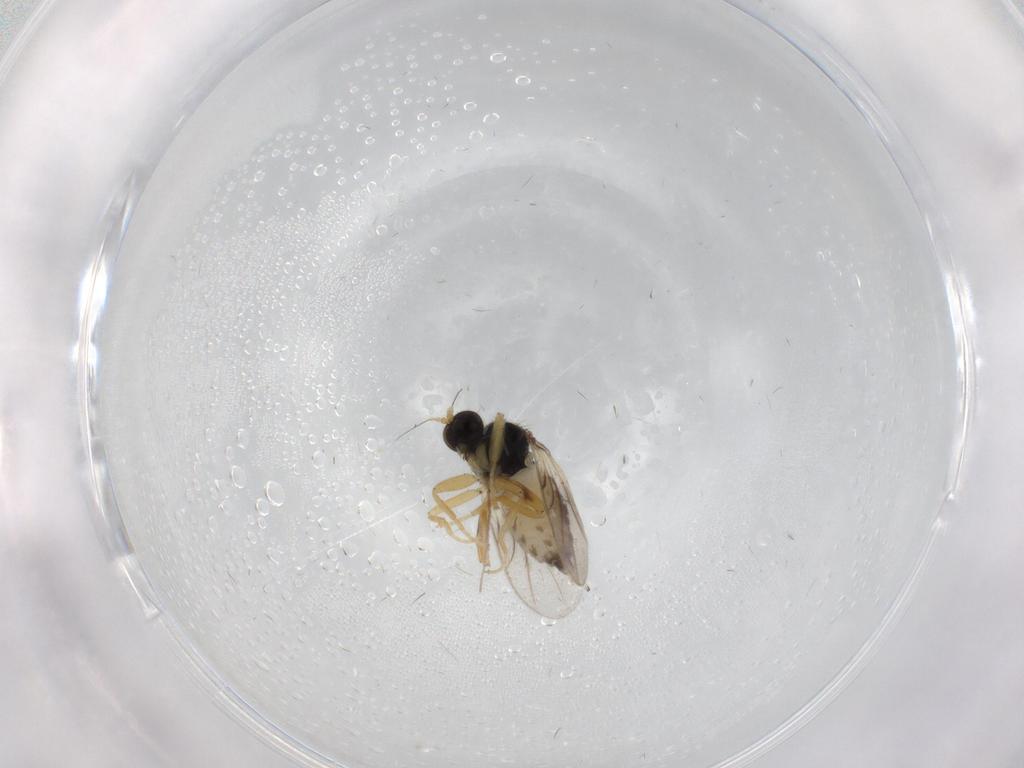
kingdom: Animalia
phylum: Arthropoda
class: Insecta
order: Diptera
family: Hybotidae
